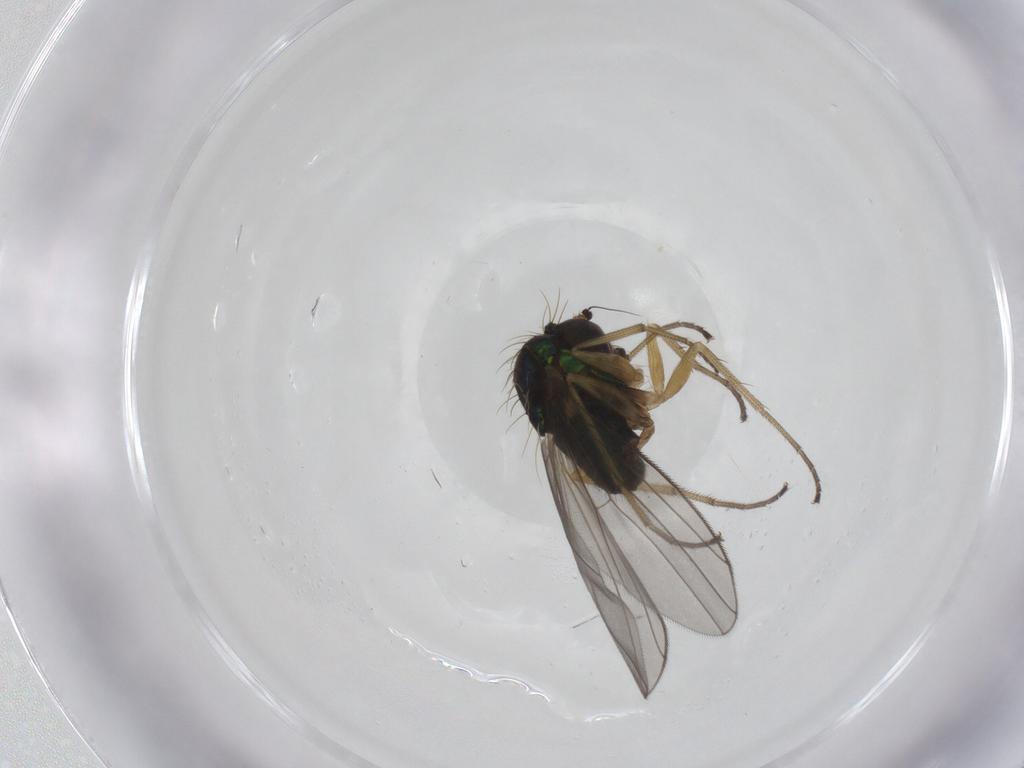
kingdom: Animalia
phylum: Arthropoda
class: Insecta
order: Diptera
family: Dolichopodidae
